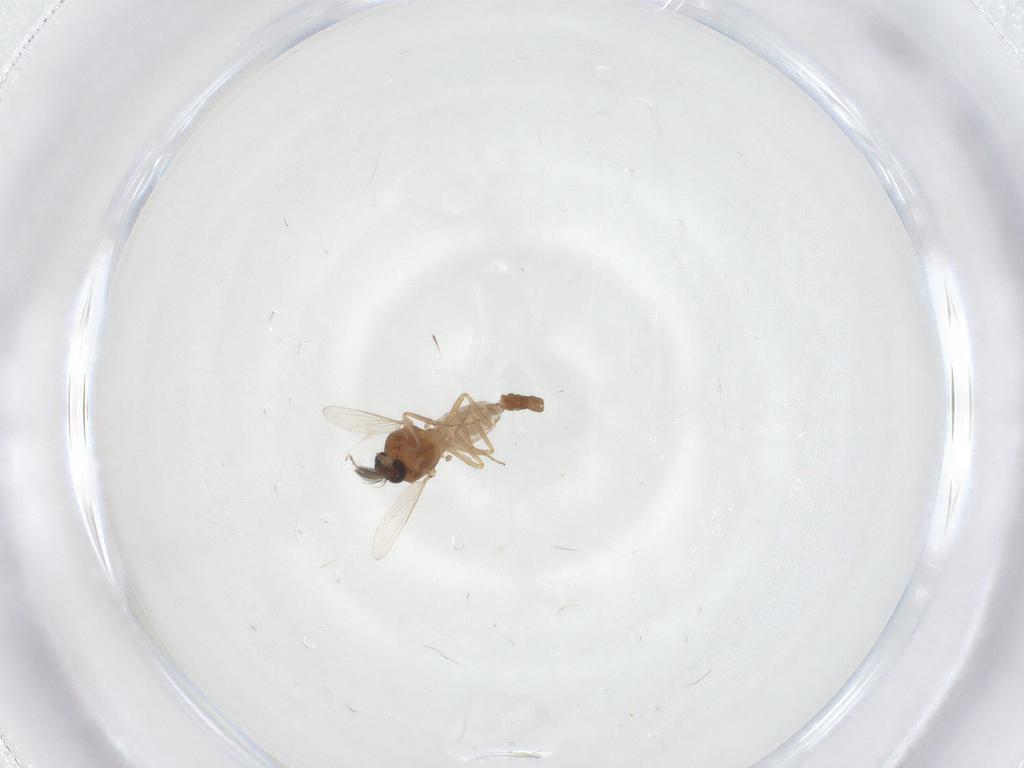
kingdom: Animalia
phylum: Arthropoda
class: Insecta
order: Diptera
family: Ceratopogonidae
